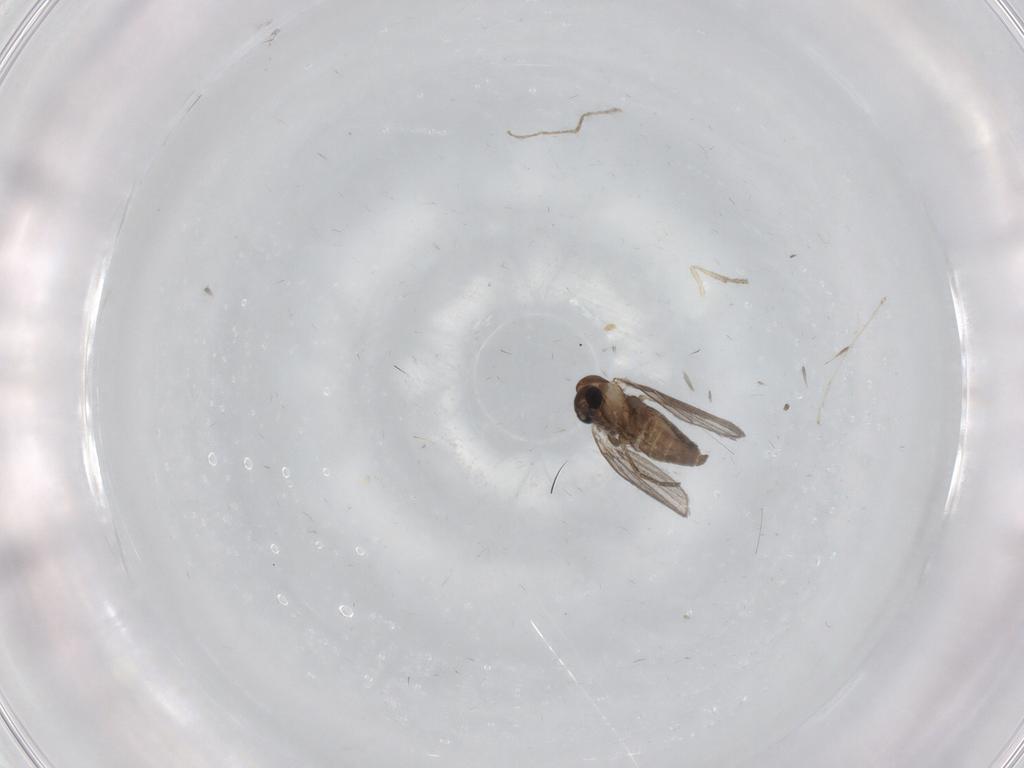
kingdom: Animalia
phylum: Arthropoda
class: Insecta
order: Diptera
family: Psychodidae
